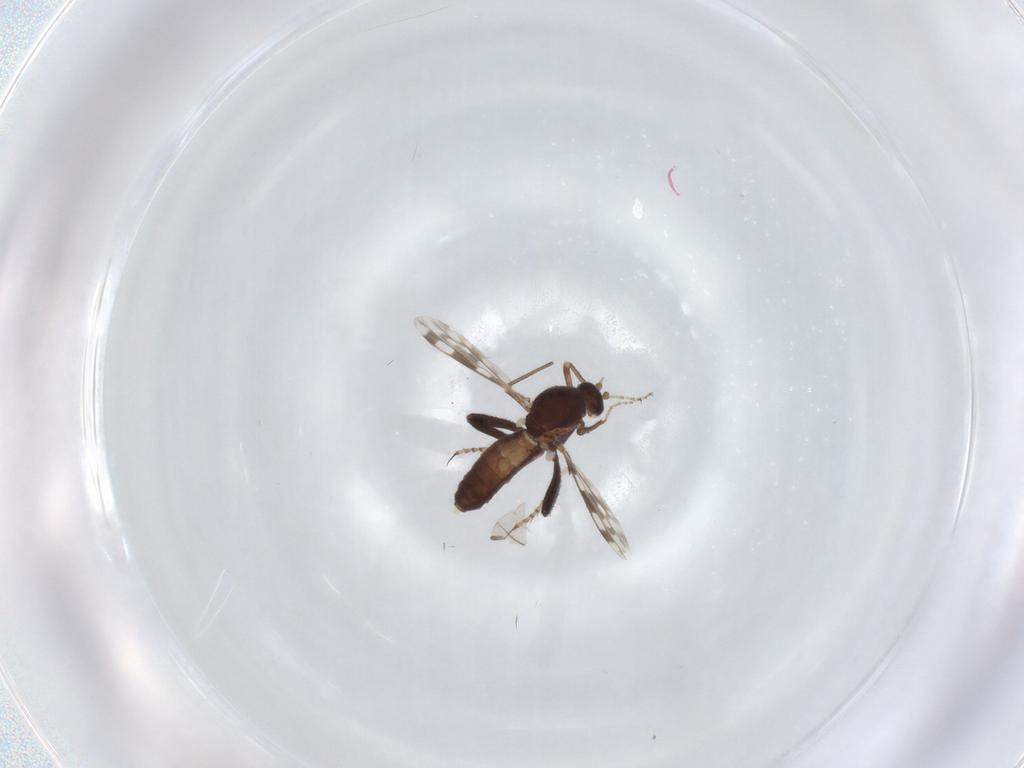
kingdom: Animalia
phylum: Arthropoda
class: Insecta
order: Diptera
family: Ceratopogonidae
